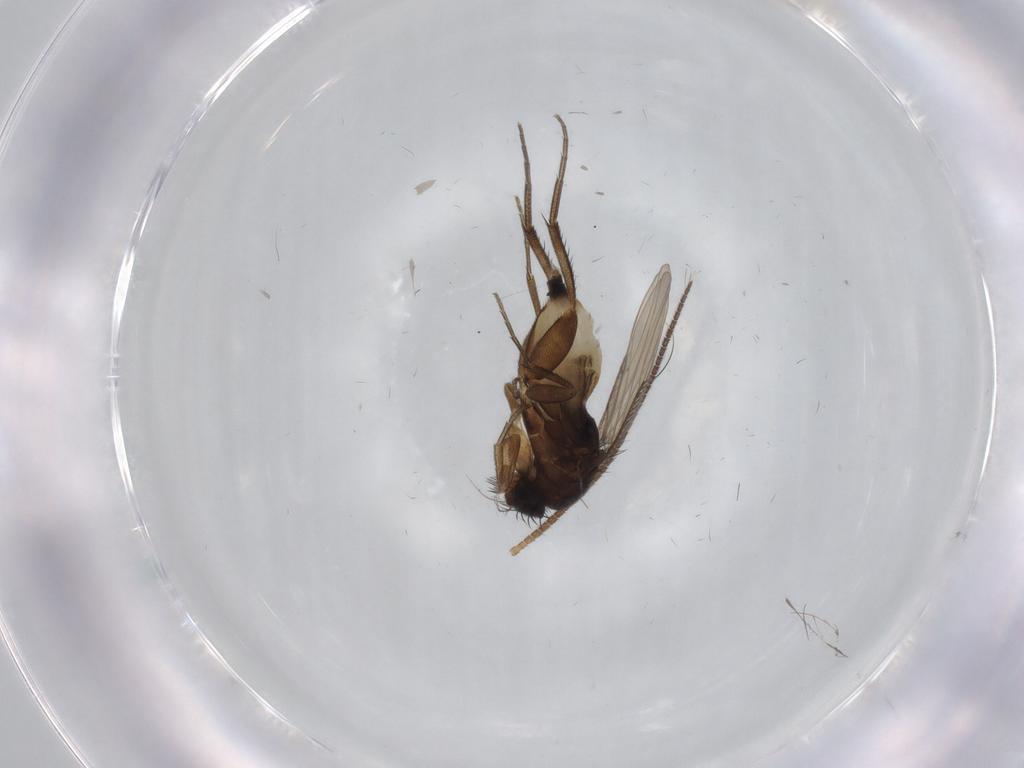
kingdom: Animalia
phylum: Arthropoda
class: Insecta
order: Diptera
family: Phoridae
